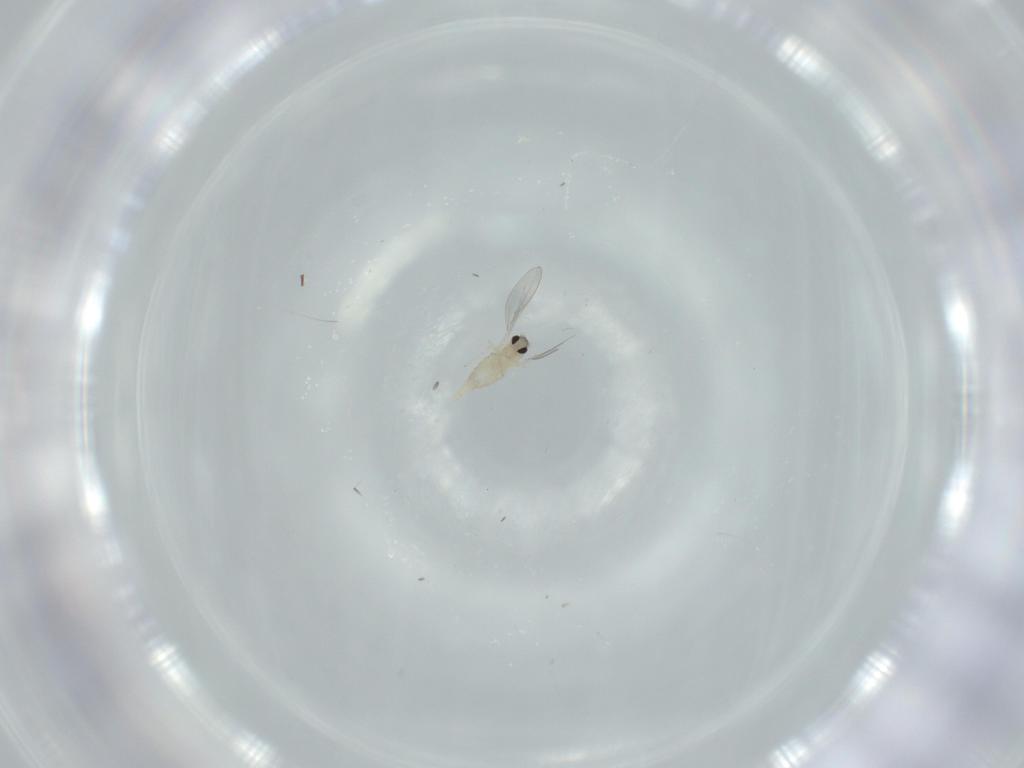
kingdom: Animalia
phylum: Arthropoda
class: Insecta
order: Diptera
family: Cecidomyiidae
